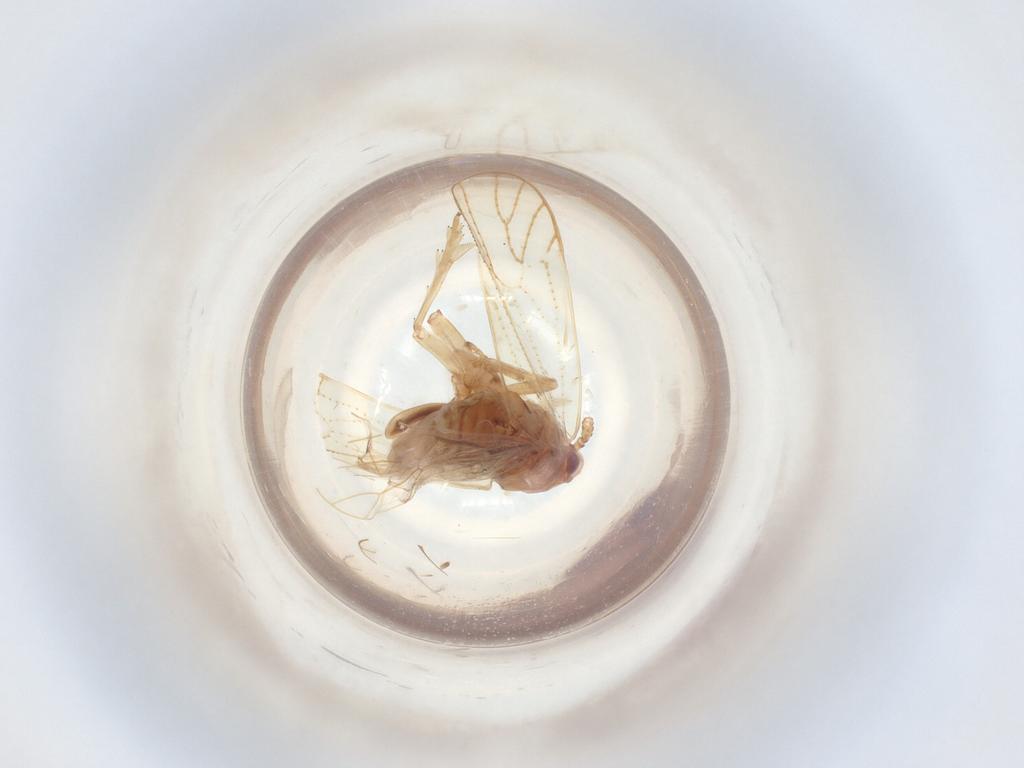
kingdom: Animalia
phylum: Arthropoda
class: Insecta
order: Diptera
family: Sciaridae
